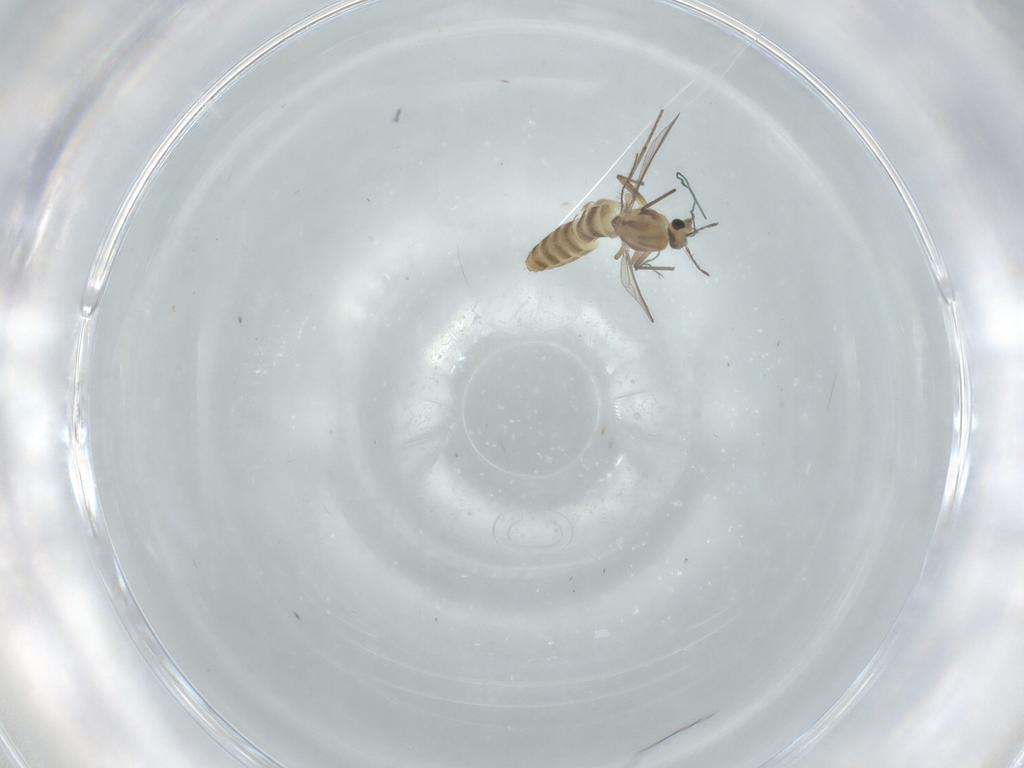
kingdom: Animalia
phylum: Arthropoda
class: Insecta
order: Diptera
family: Chironomidae
